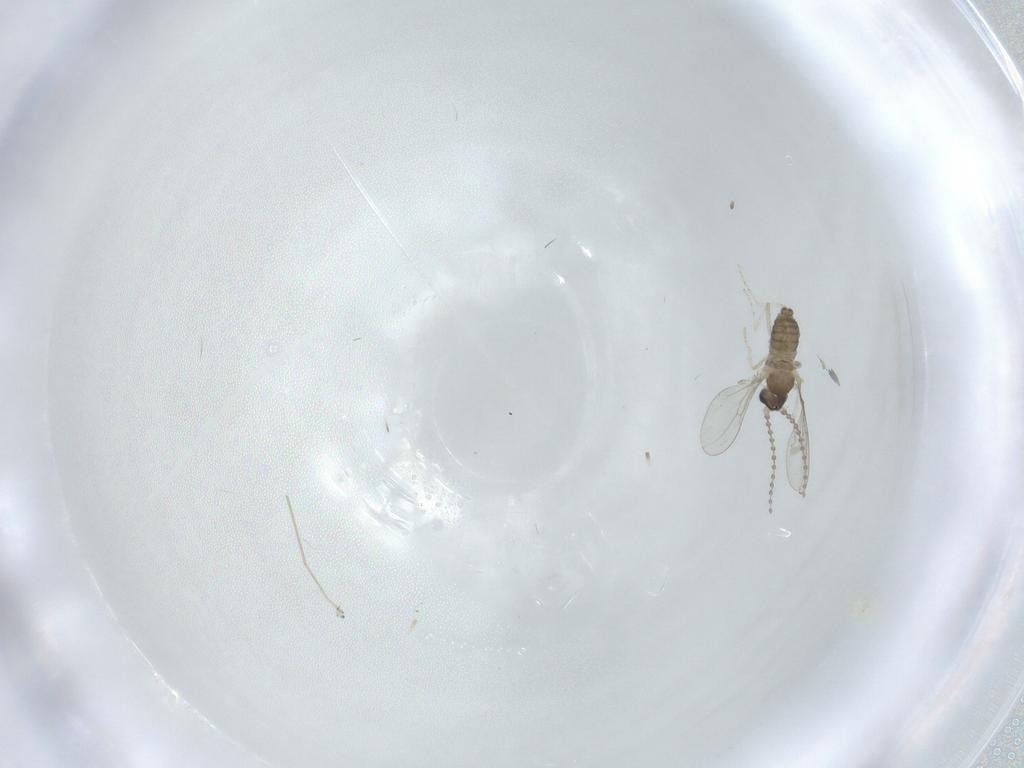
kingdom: Animalia
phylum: Arthropoda
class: Insecta
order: Diptera
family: Cecidomyiidae
